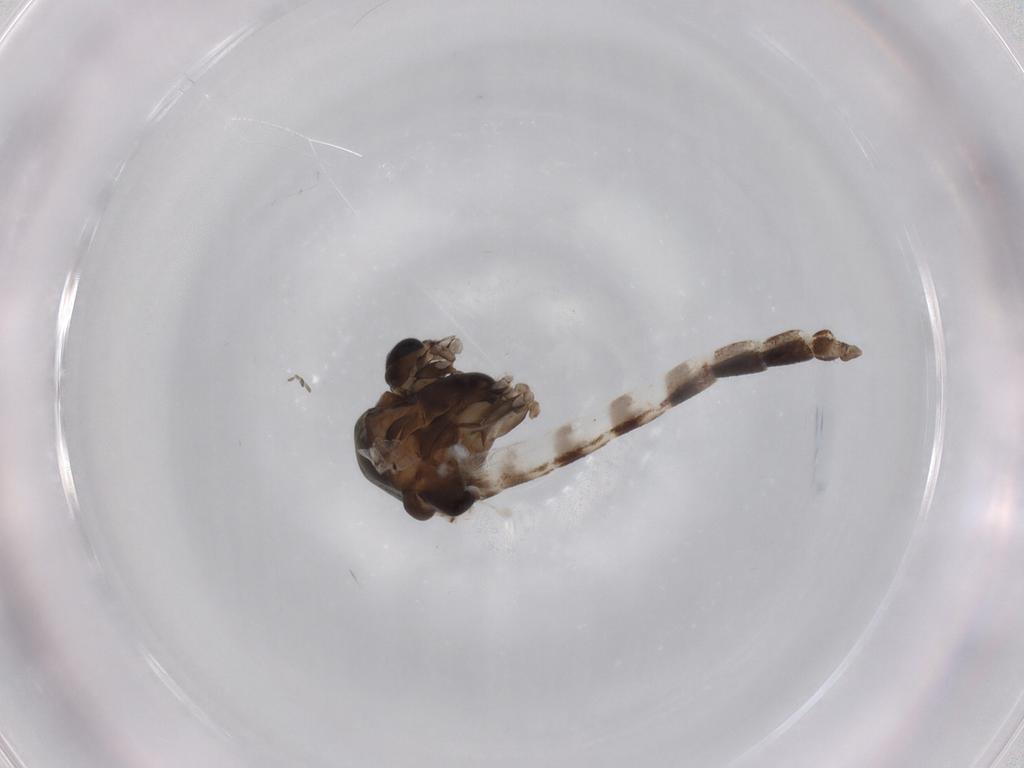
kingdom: Animalia
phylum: Arthropoda
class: Insecta
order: Diptera
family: Chironomidae
